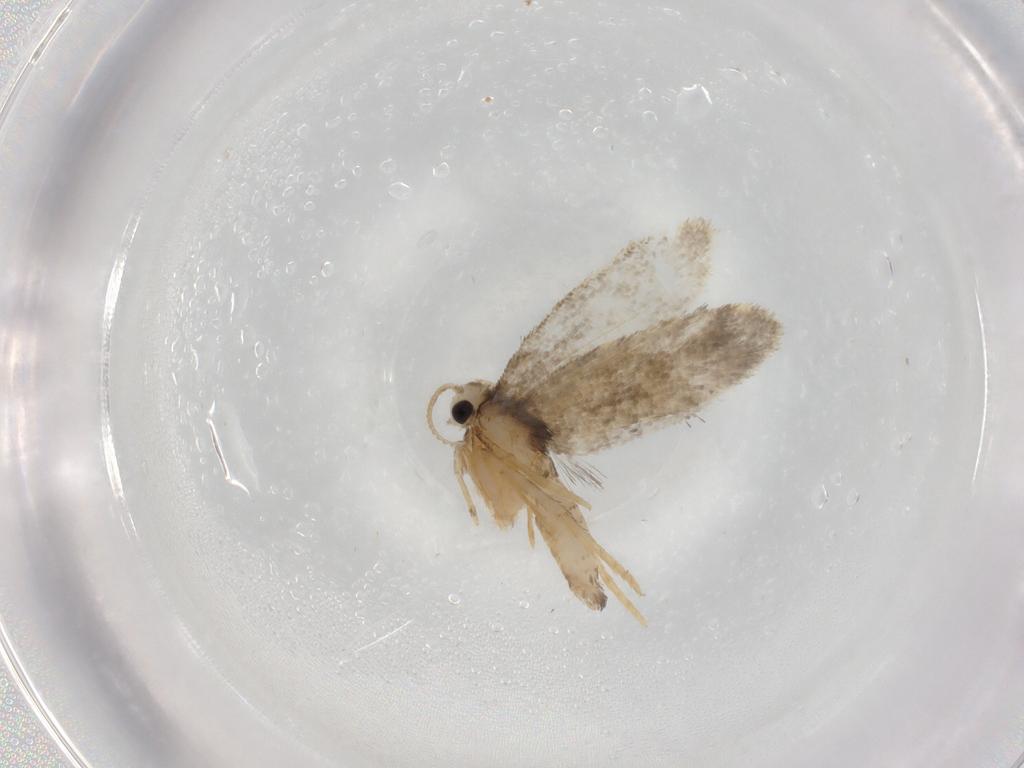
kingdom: Animalia
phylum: Arthropoda
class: Insecta
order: Lepidoptera
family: Psychidae
